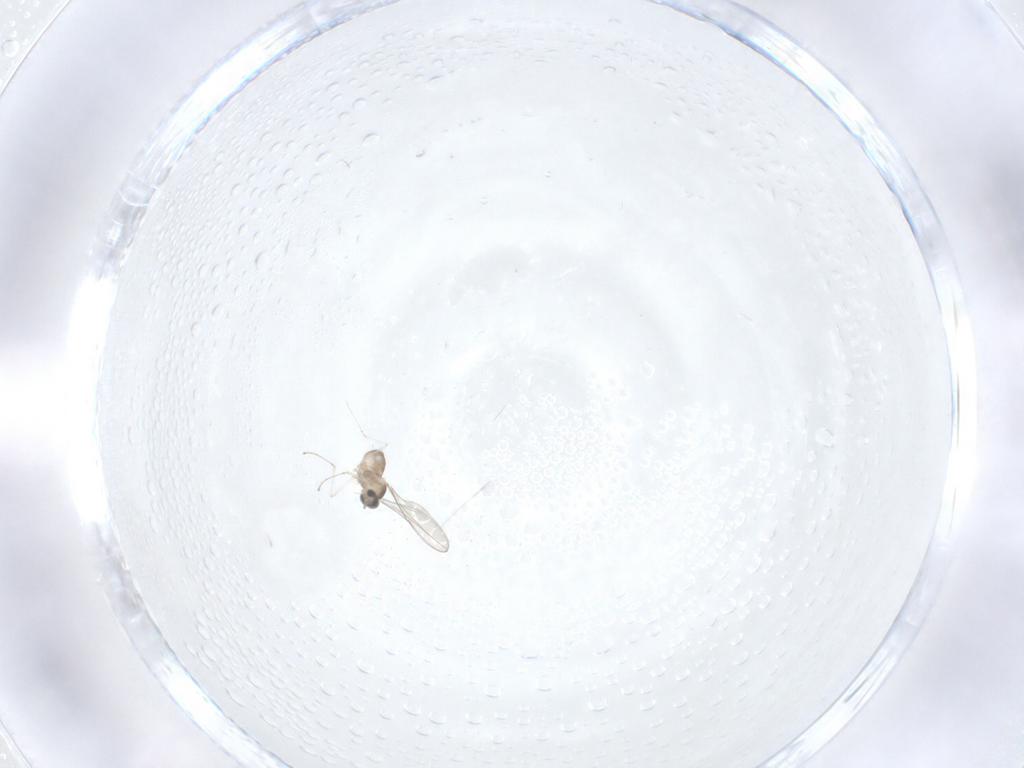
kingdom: Animalia
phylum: Arthropoda
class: Insecta
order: Diptera
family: Cecidomyiidae
